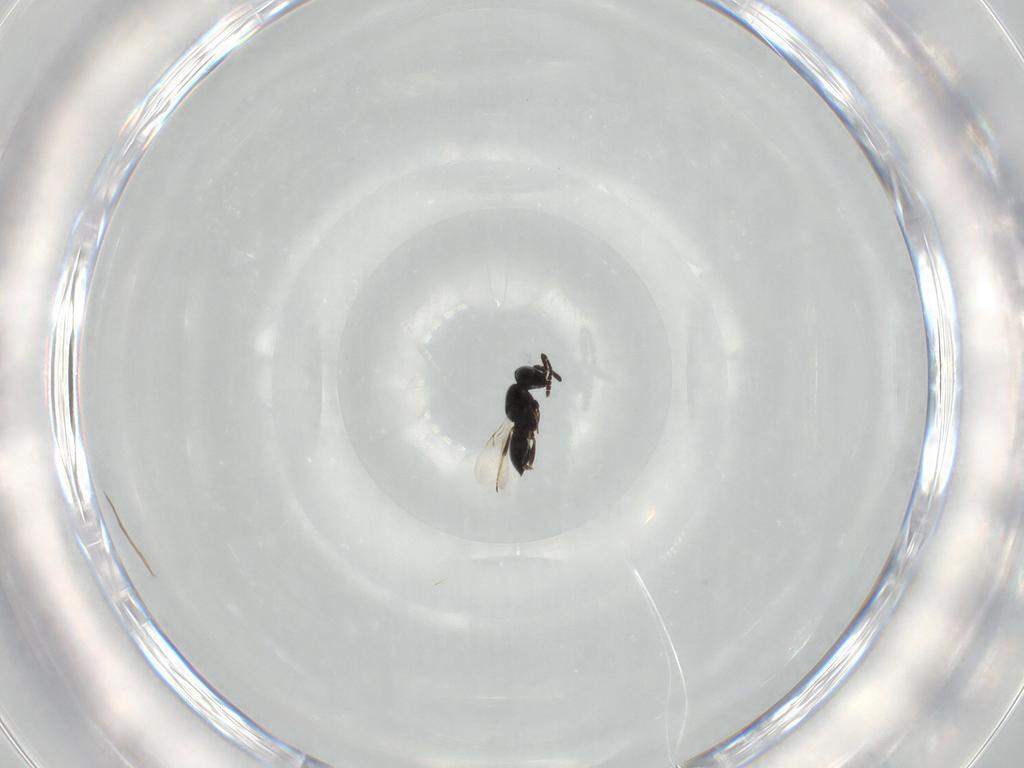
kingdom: Animalia
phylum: Arthropoda
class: Insecta
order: Hymenoptera
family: Scelionidae
